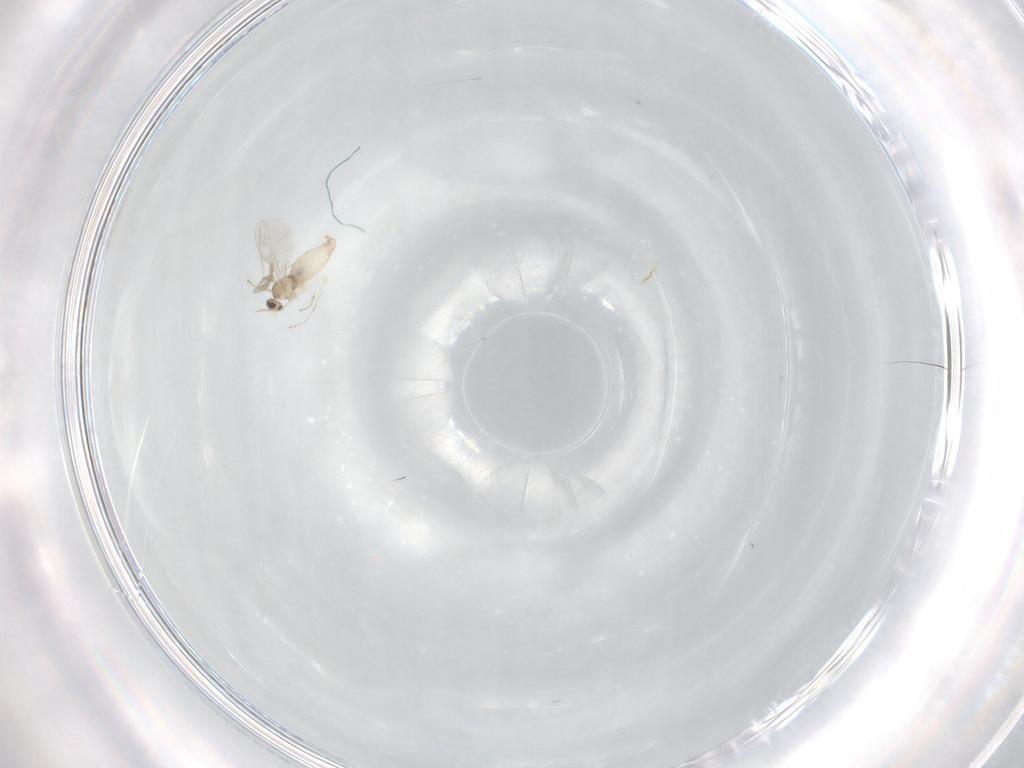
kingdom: Animalia
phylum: Arthropoda
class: Insecta
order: Diptera
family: Cecidomyiidae
